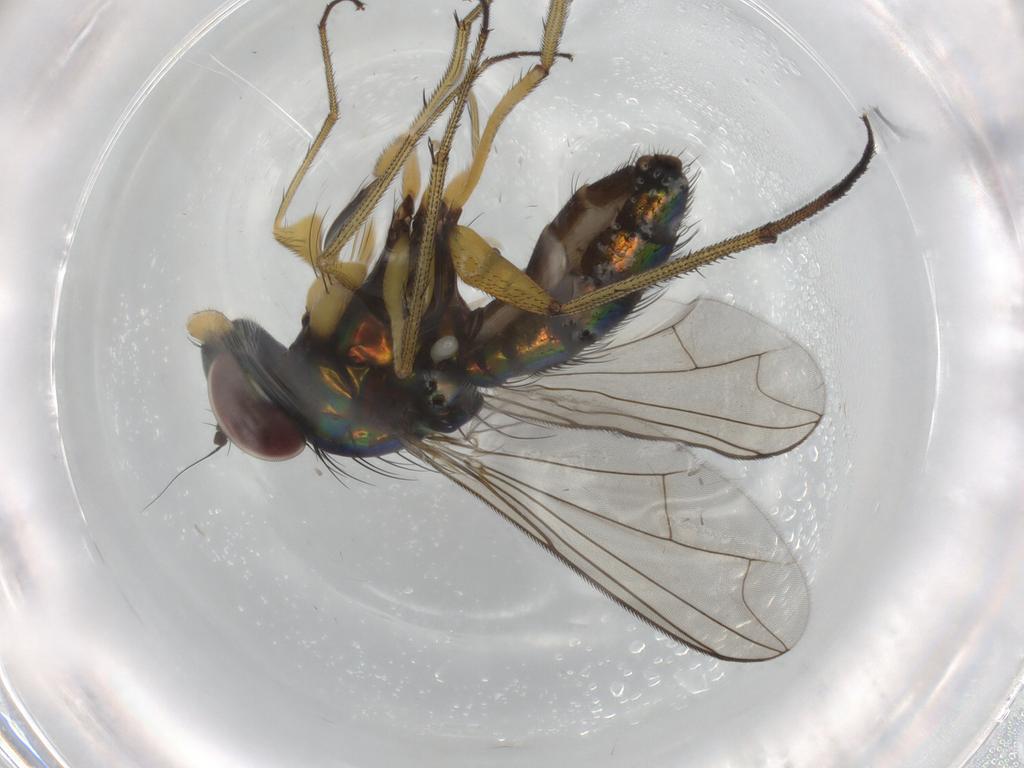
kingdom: Animalia
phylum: Arthropoda
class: Insecta
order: Diptera
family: Dolichopodidae
